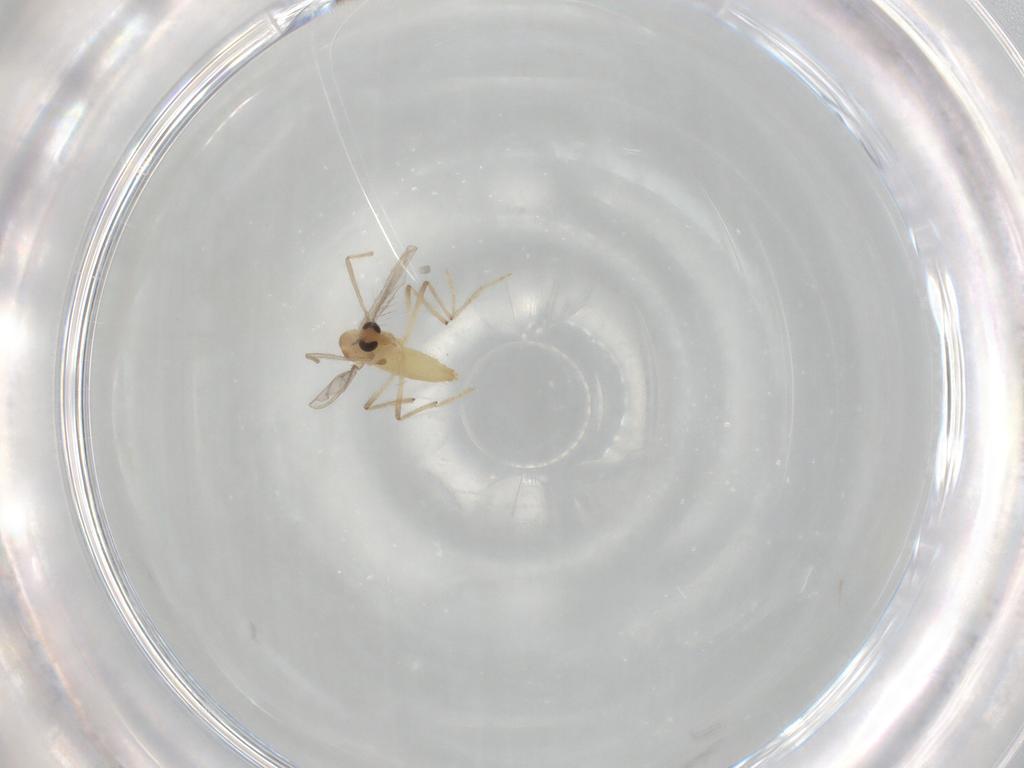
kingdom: Animalia
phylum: Arthropoda
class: Insecta
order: Diptera
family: Chironomidae
